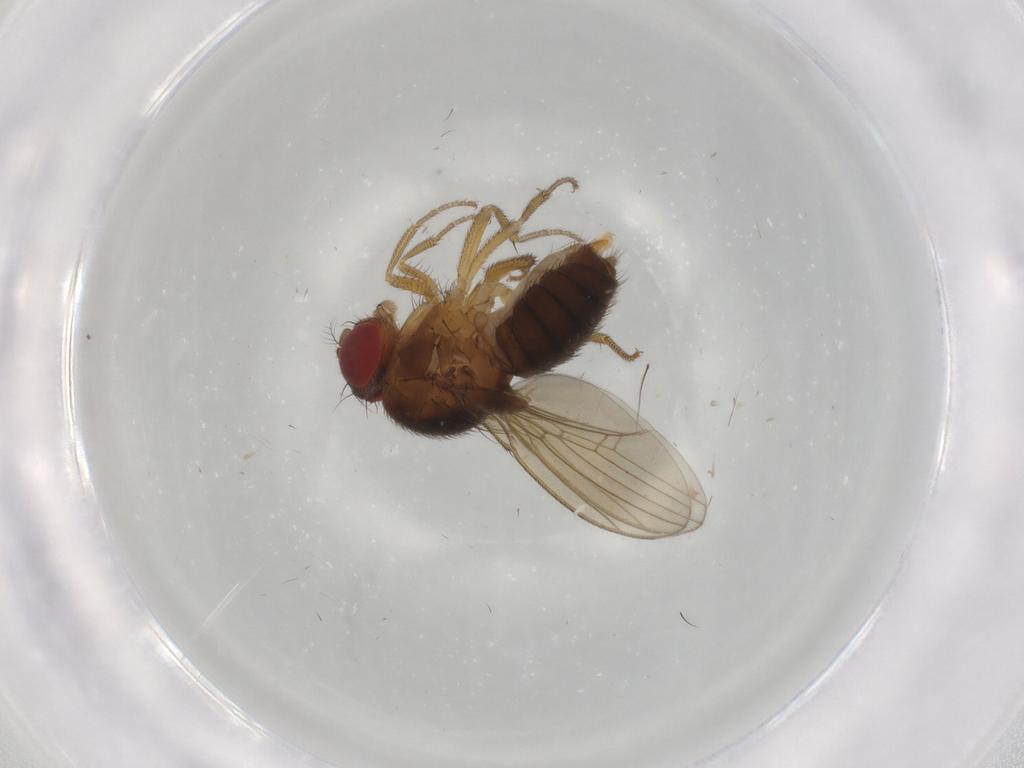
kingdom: Animalia
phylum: Arthropoda
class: Insecta
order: Diptera
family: Drosophilidae
